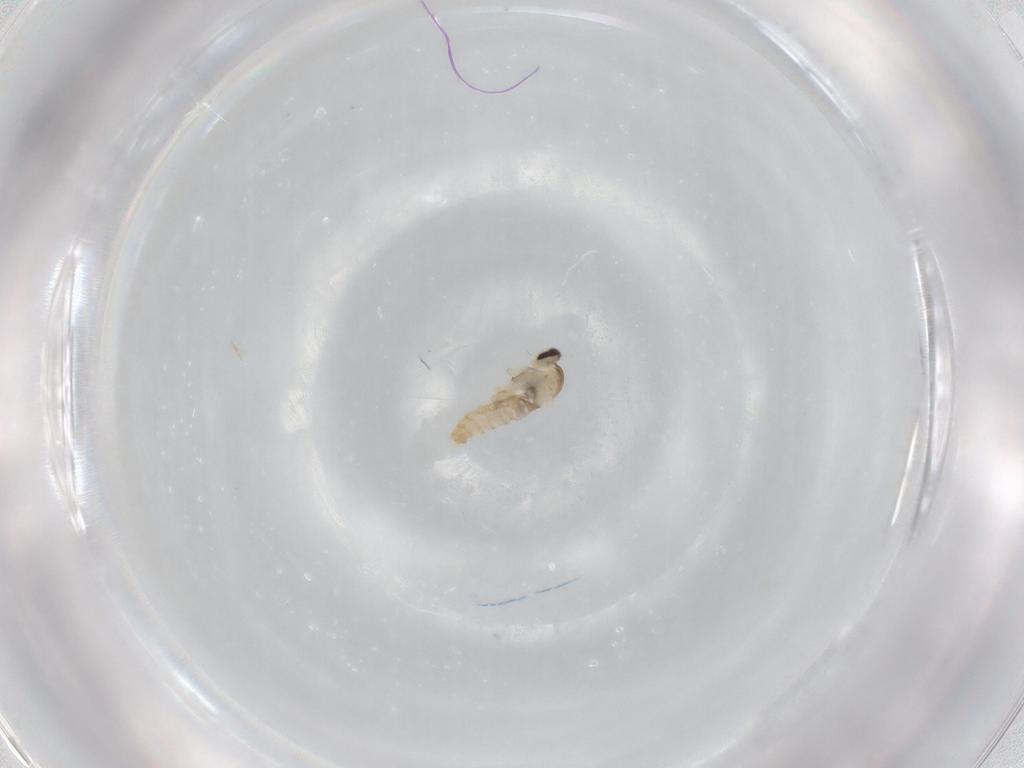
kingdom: Animalia
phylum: Arthropoda
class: Insecta
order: Diptera
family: Cecidomyiidae
